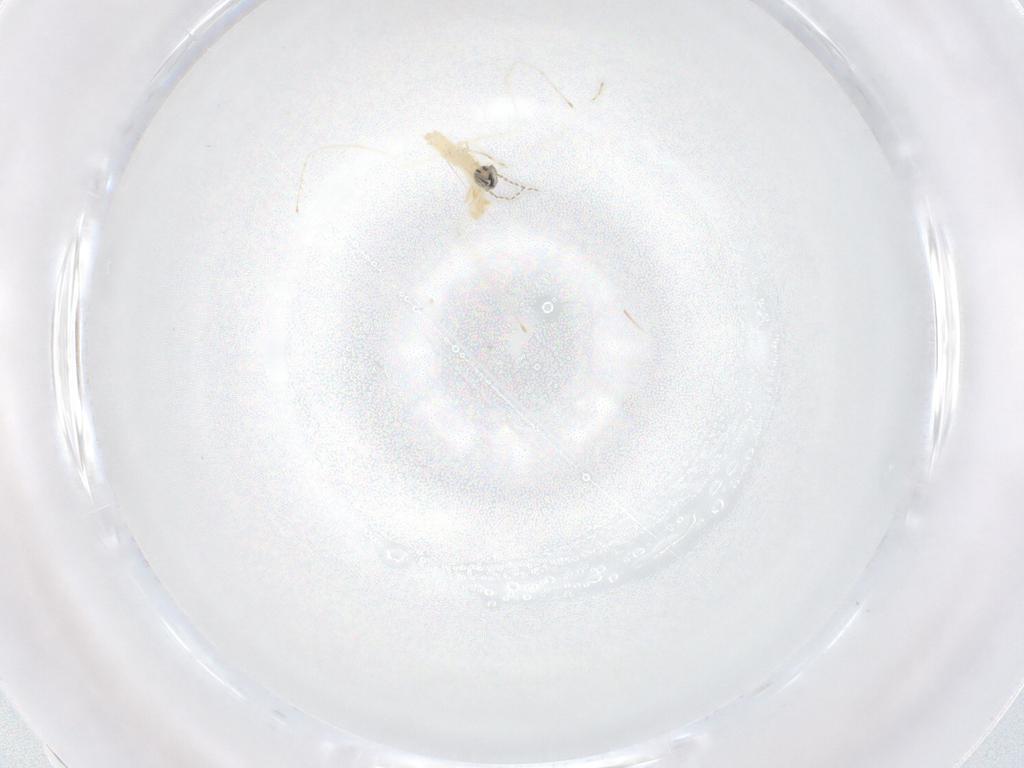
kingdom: Animalia
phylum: Arthropoda
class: Insecta
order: Diptera
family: Cecidomyiidae
